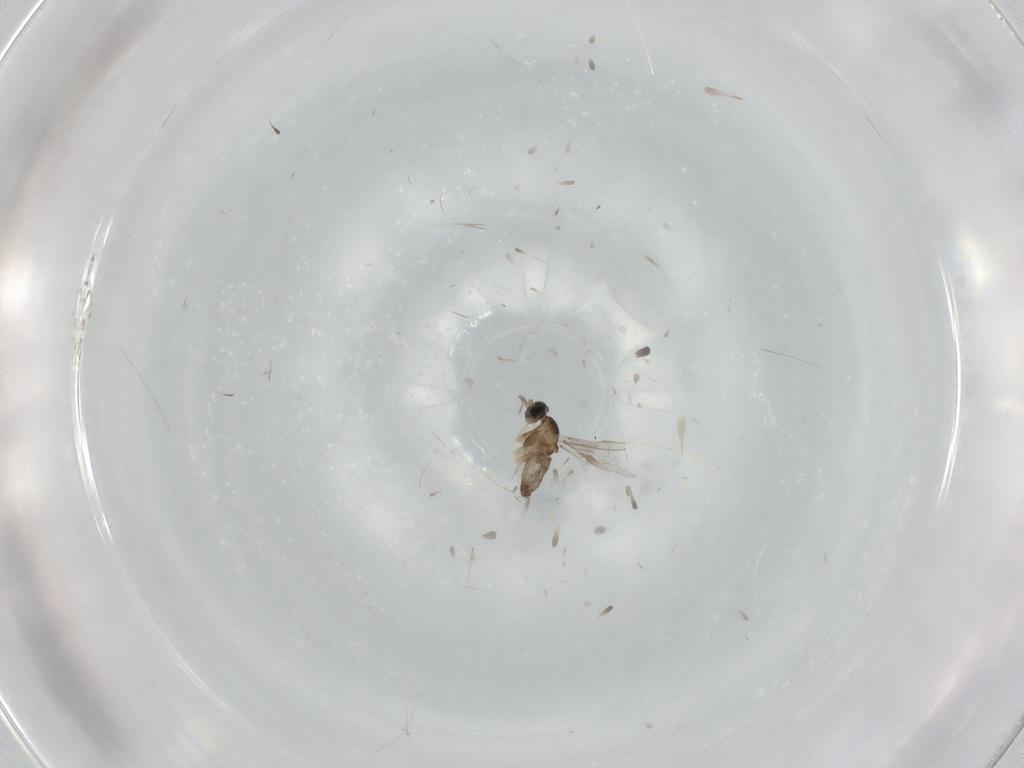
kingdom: Animalia
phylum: Arthropoda
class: Insecta
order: Diptera
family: Cecidomyiidae
